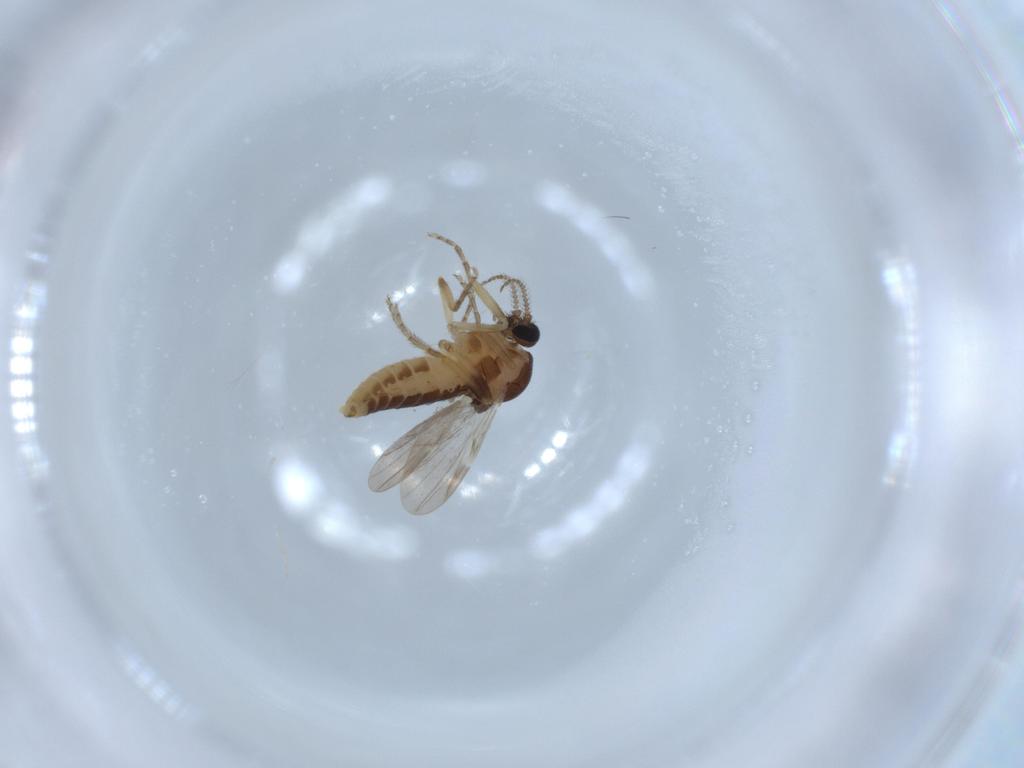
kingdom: Animalia
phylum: Arthropoda
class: Insecta
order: Diptera
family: Ceratopogonidae
